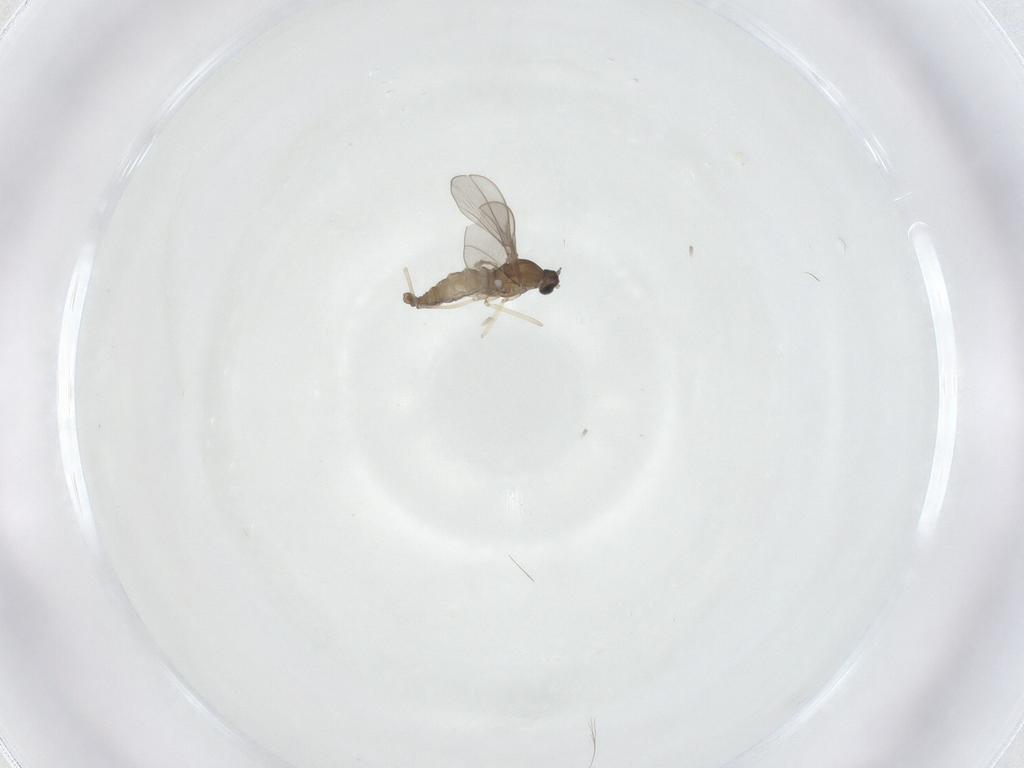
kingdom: Animalia
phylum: Arthropoda
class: Insecta
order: Diptera
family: Cecidomyiidae
